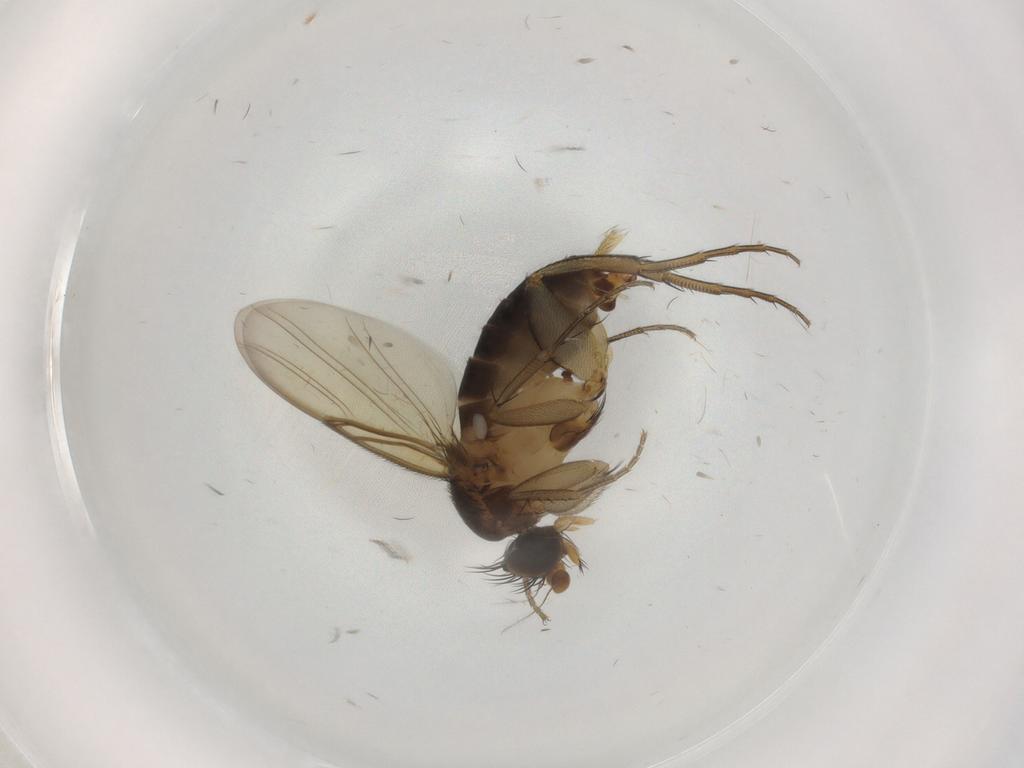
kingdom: Animalia
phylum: Arthropoda
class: Insecta
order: Diptera
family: Phoridae
